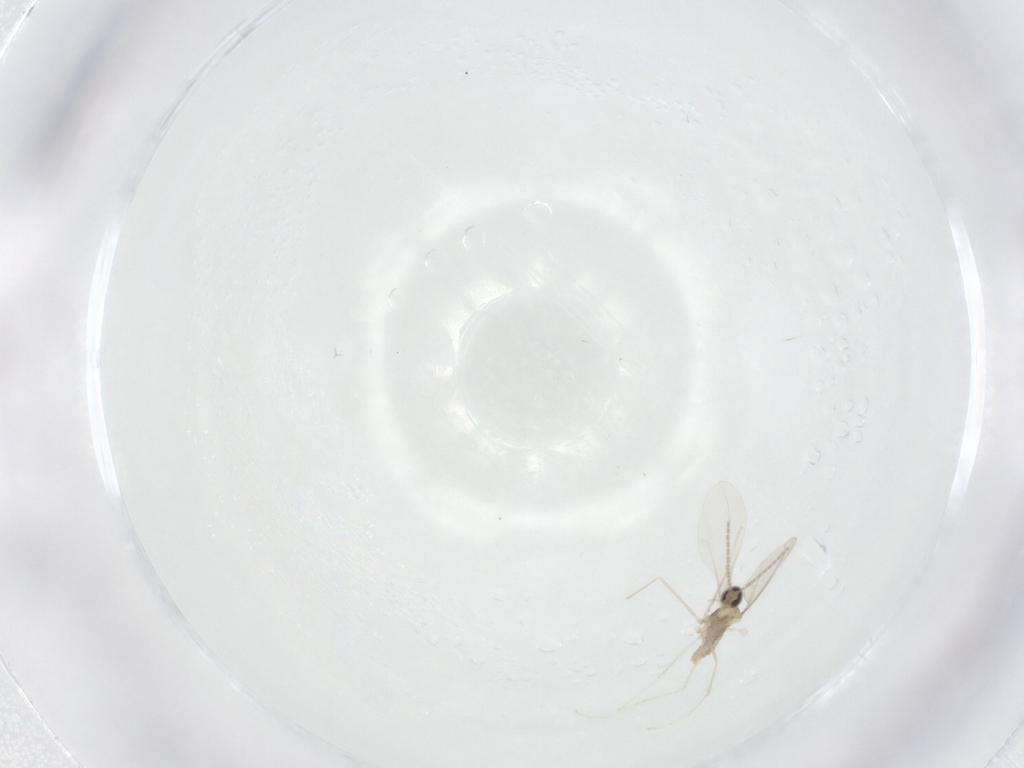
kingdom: Animalia
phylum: Arthropoda
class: Insecta
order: Diptera
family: Cecidomyiidae
